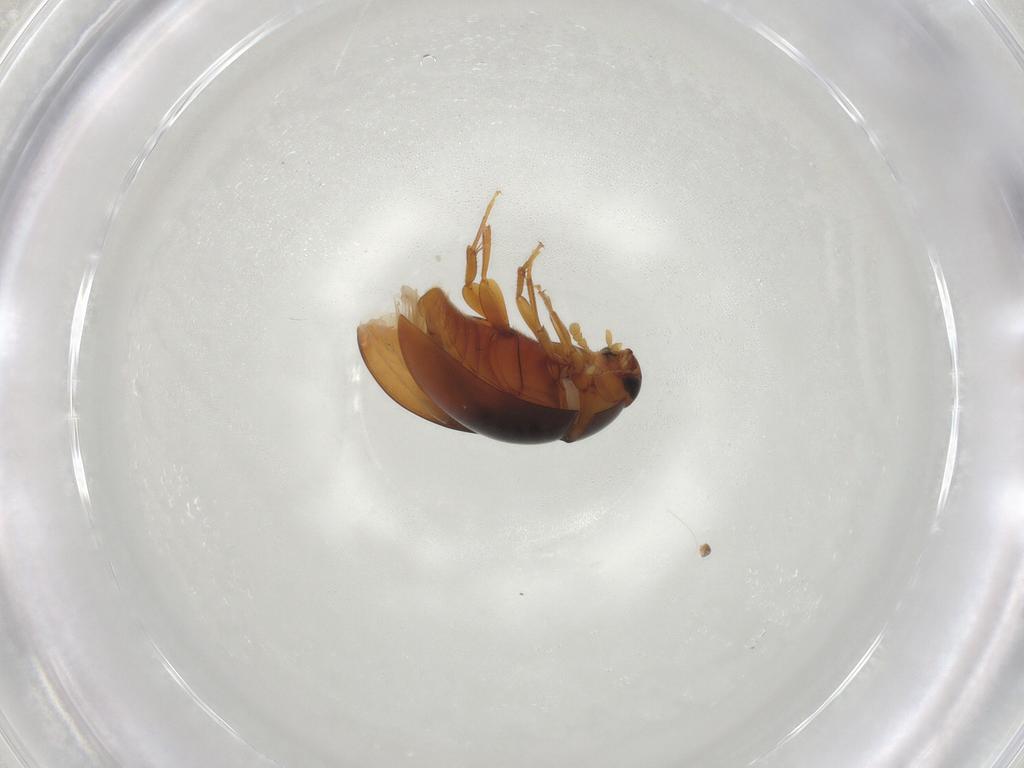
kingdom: Animalia
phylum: Arthropoda
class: Insecta
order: Coleoptera
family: Phalacridae
